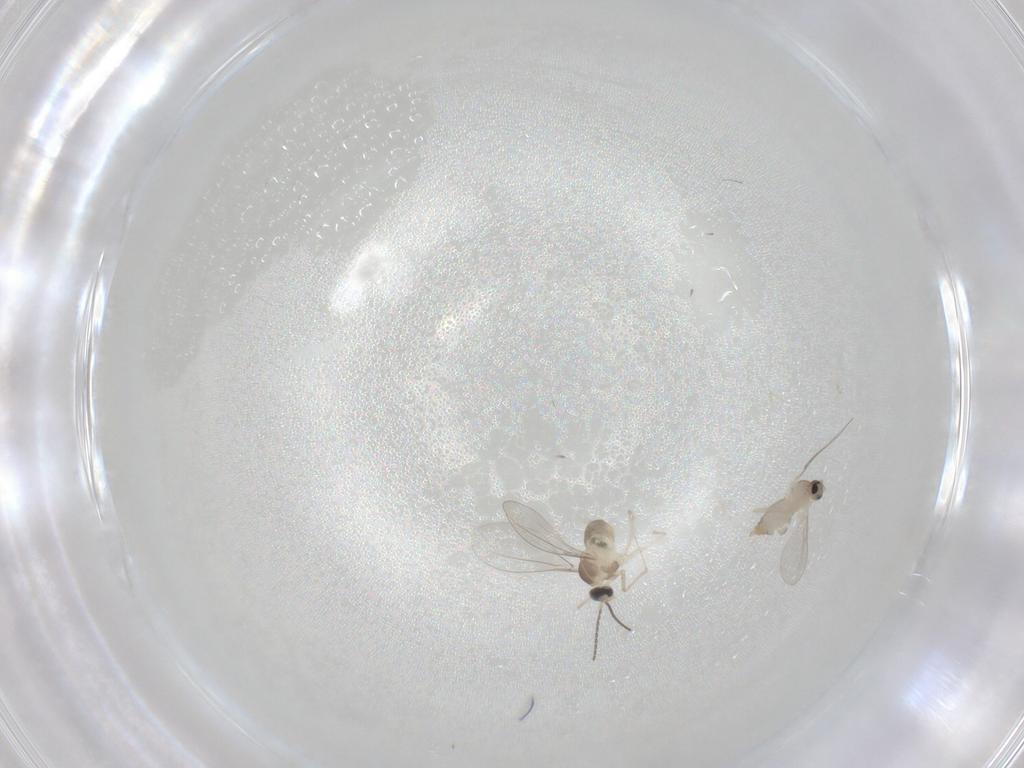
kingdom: Animalia
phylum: Arthropoda
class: Insecta
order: Diptera
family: Cecidomyiidae
